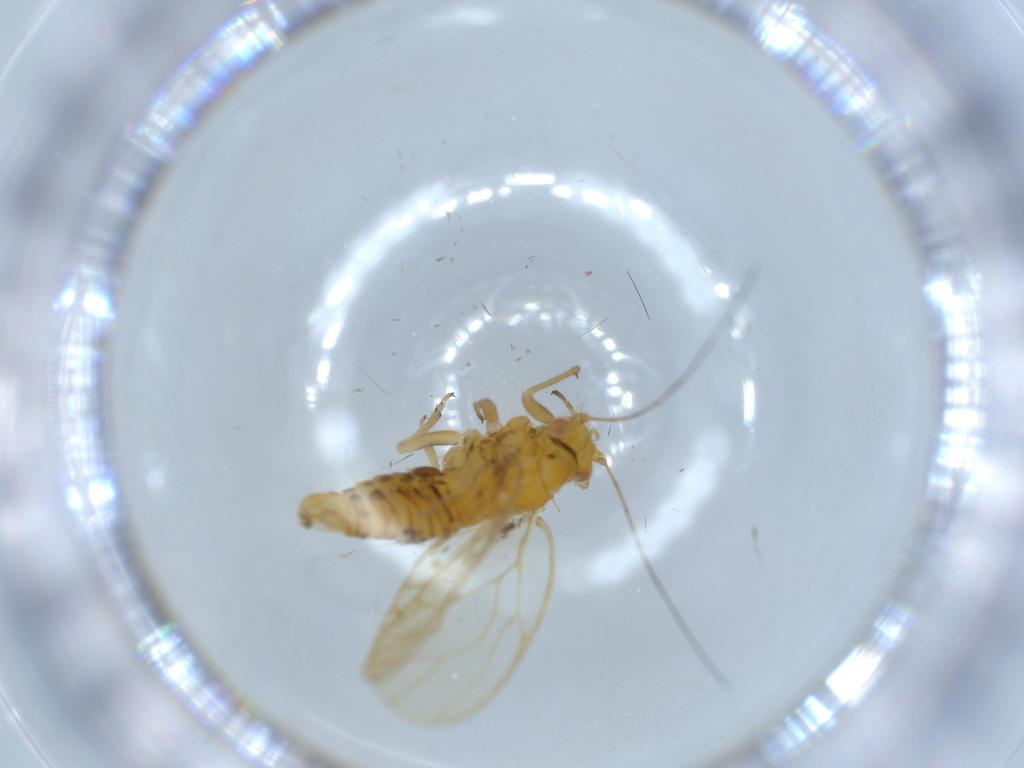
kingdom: Animalia
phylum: Arthropoda
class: Insecta
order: Hemiptera
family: Psyllidae
